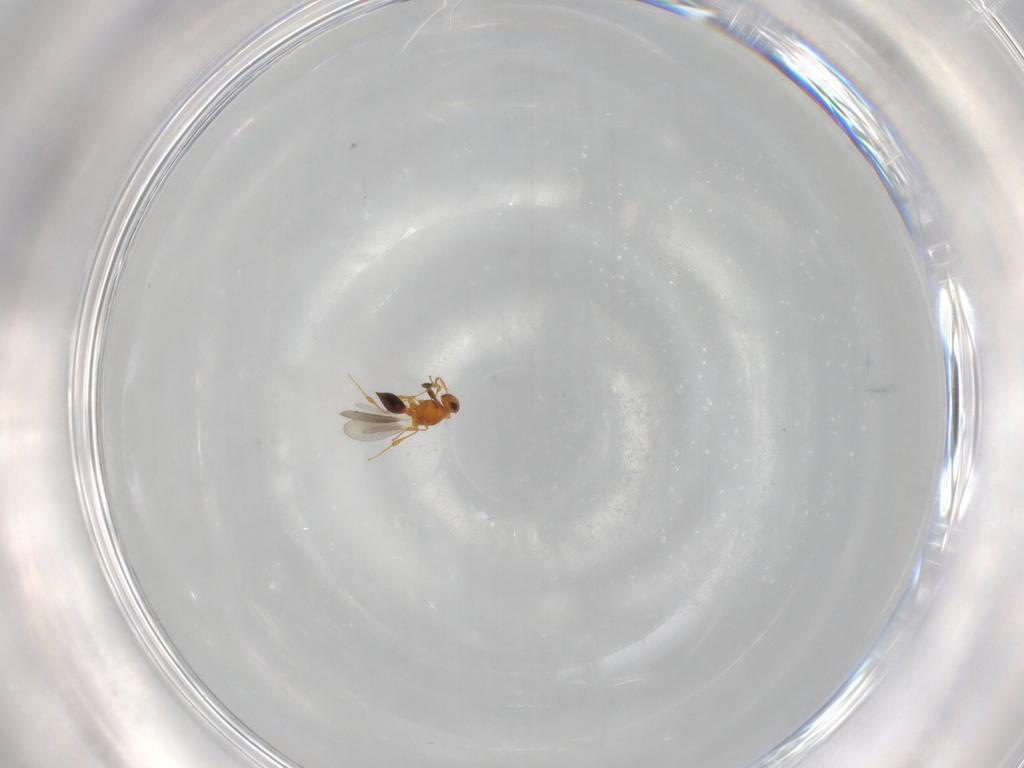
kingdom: Animalia
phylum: Arthropoda
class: Insecta
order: Hymenoptera
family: Platygastridae
